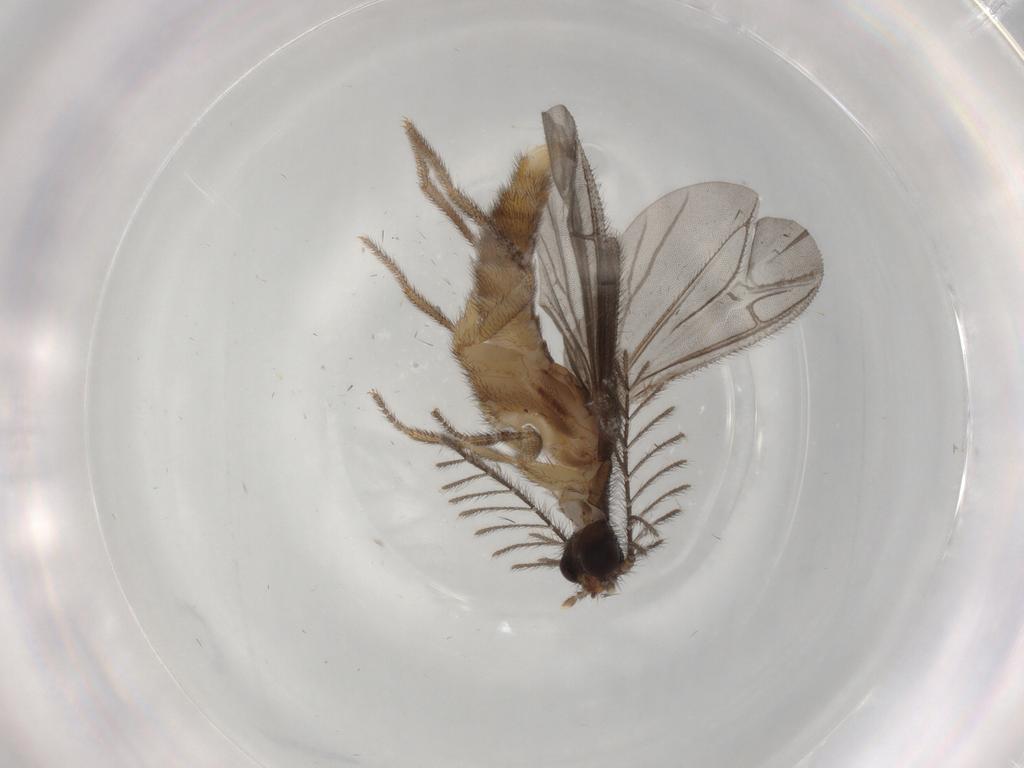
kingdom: Animalia
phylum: Arthropoda
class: Insecta
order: Coleoptera
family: Phengodidae
